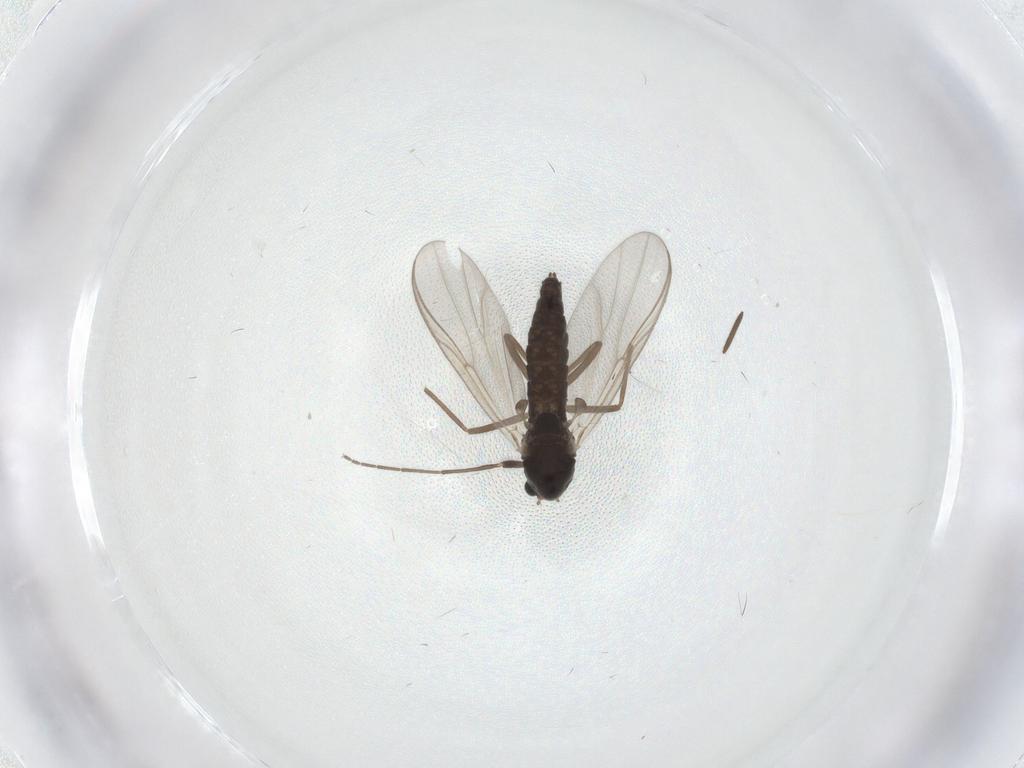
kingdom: Animalia
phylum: Arthropoda
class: Insecta
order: Diptera
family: Chironomidae
